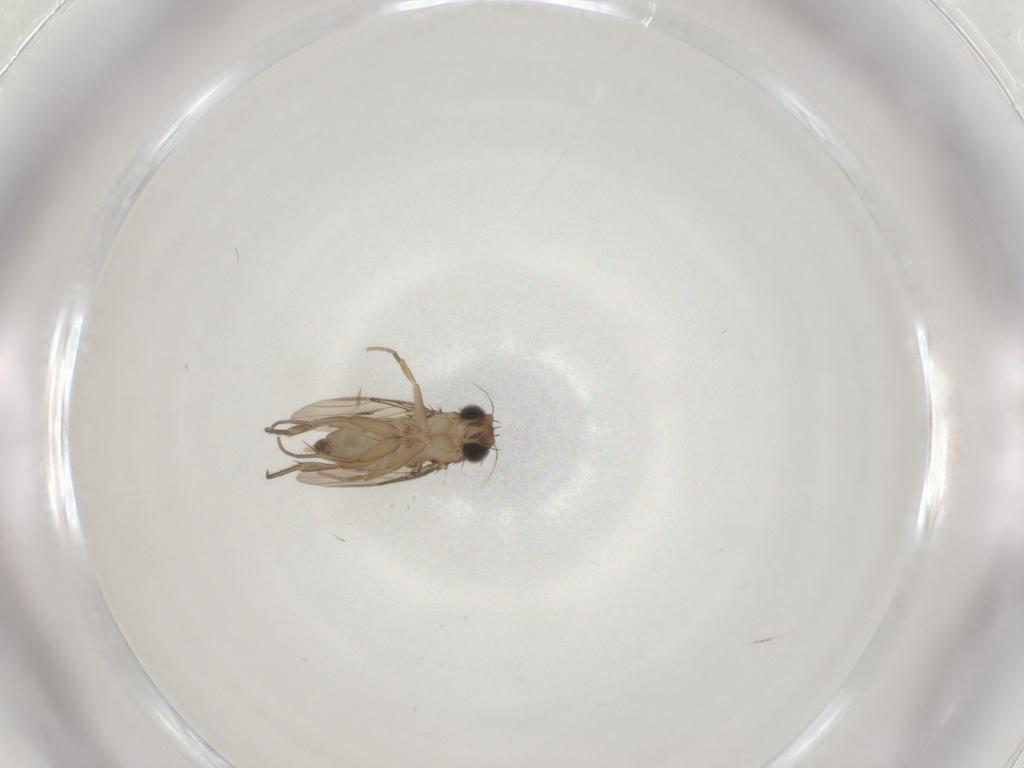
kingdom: Animalia
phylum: Arthropoda
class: Insecta
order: Diptera
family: Phoridae
